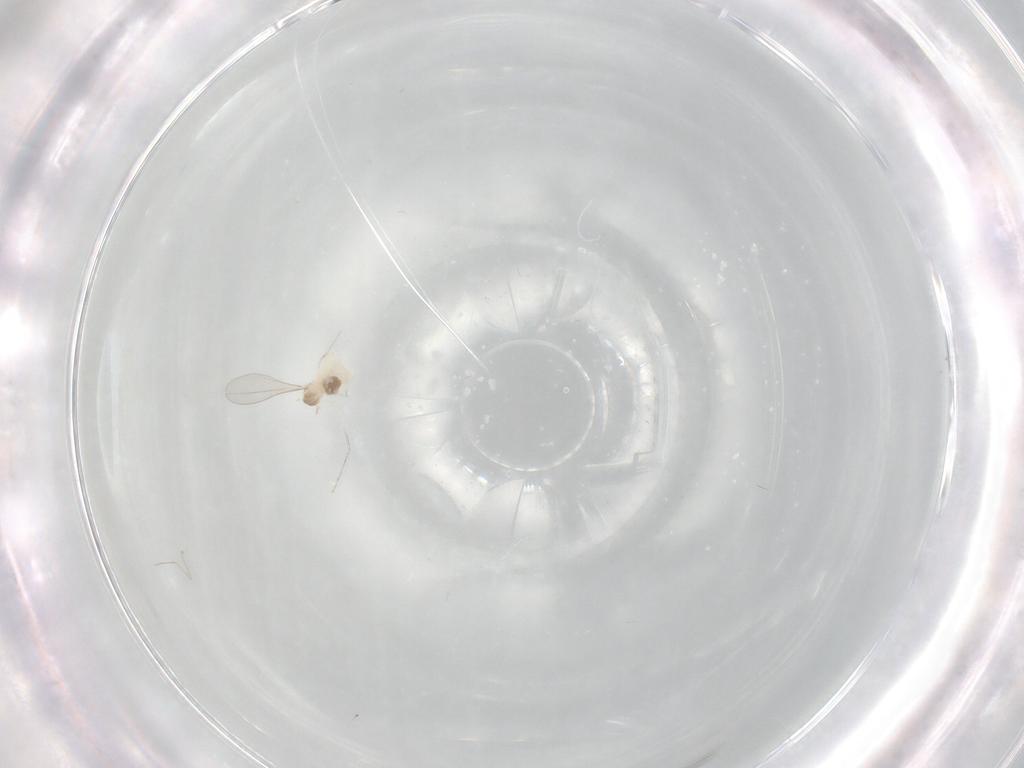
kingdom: Animalia
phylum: Arthropoda
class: Insecta
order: Diptera
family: Cecidomyiidae
